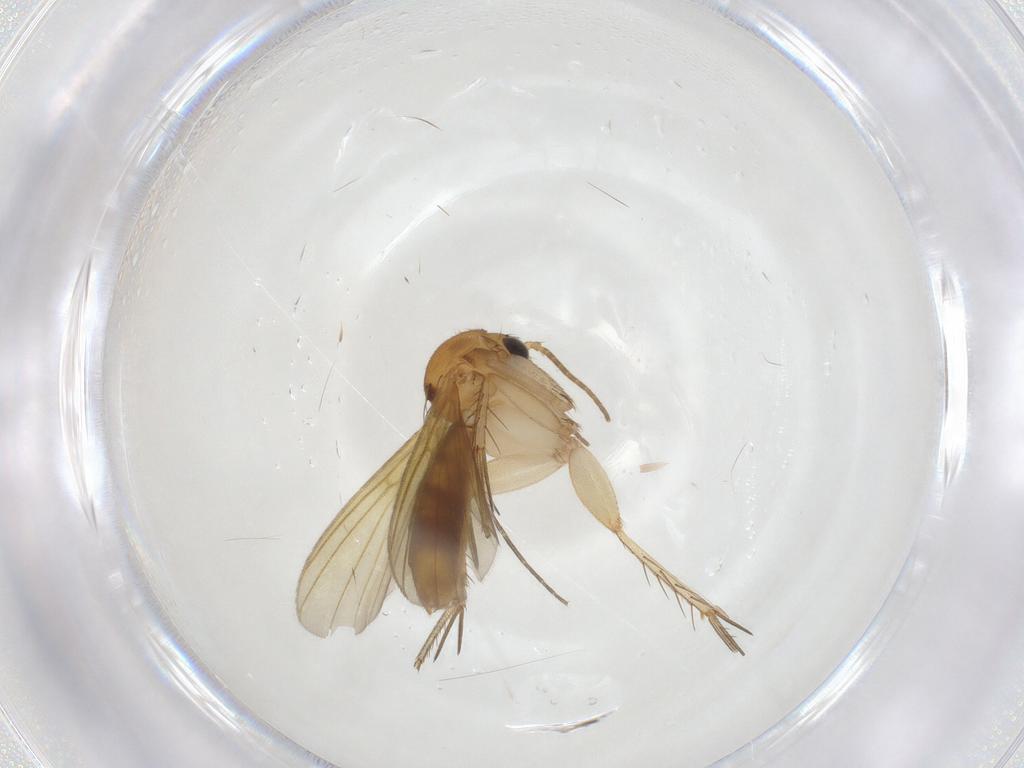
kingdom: Animalia
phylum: Arthropoda
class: Insecta
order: Diptera
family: Mycetophilidae
